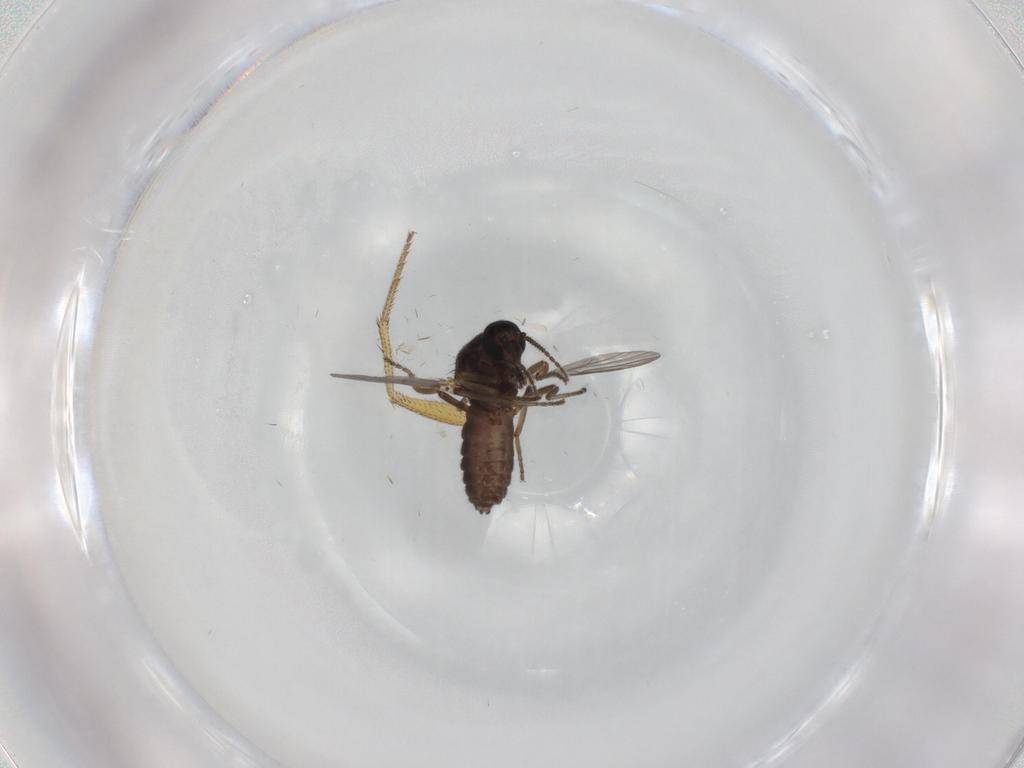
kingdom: Animalia
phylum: Arthropoda
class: Insecta
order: Diptera
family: Ceratopogonidae
